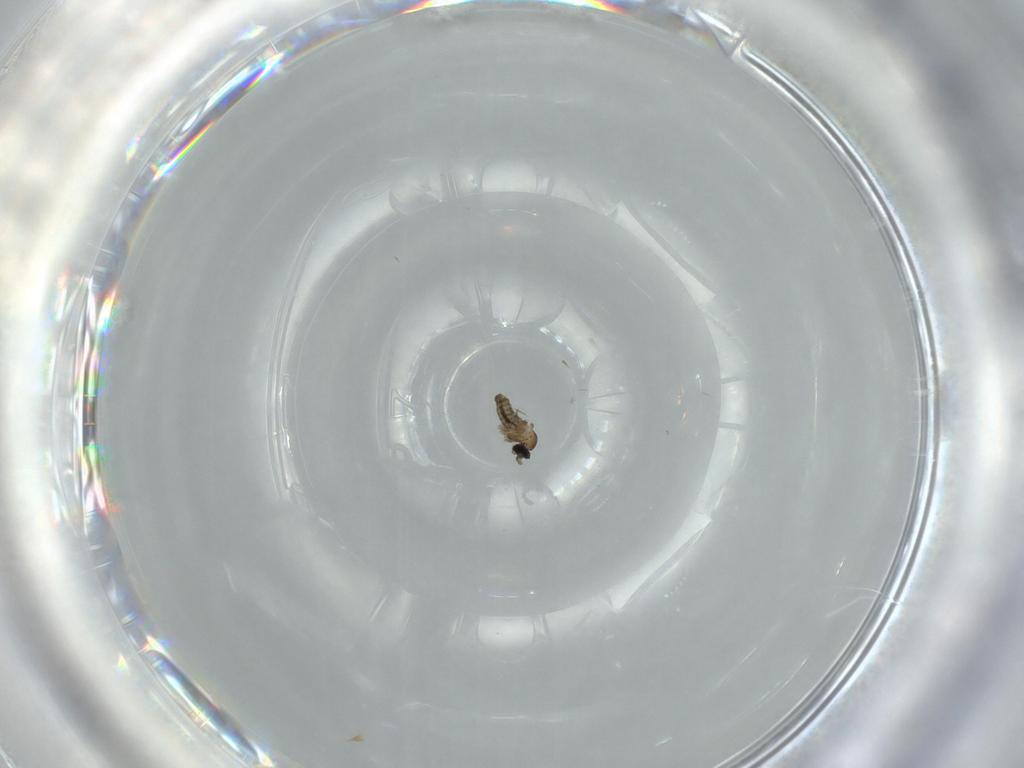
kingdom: Animalia
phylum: Arthropoda
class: Insecta
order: Diptera
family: Cecidomyiidae
